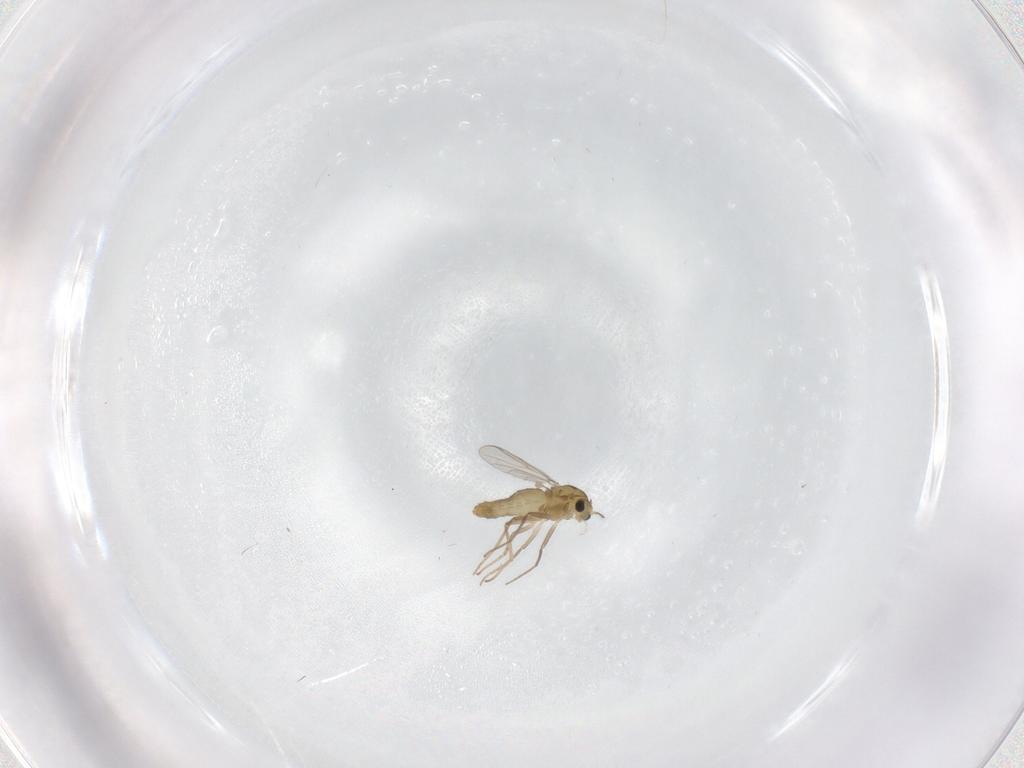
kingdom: Animalia
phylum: Arthropoda
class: Insecta
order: Diptera
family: Chironomidae
